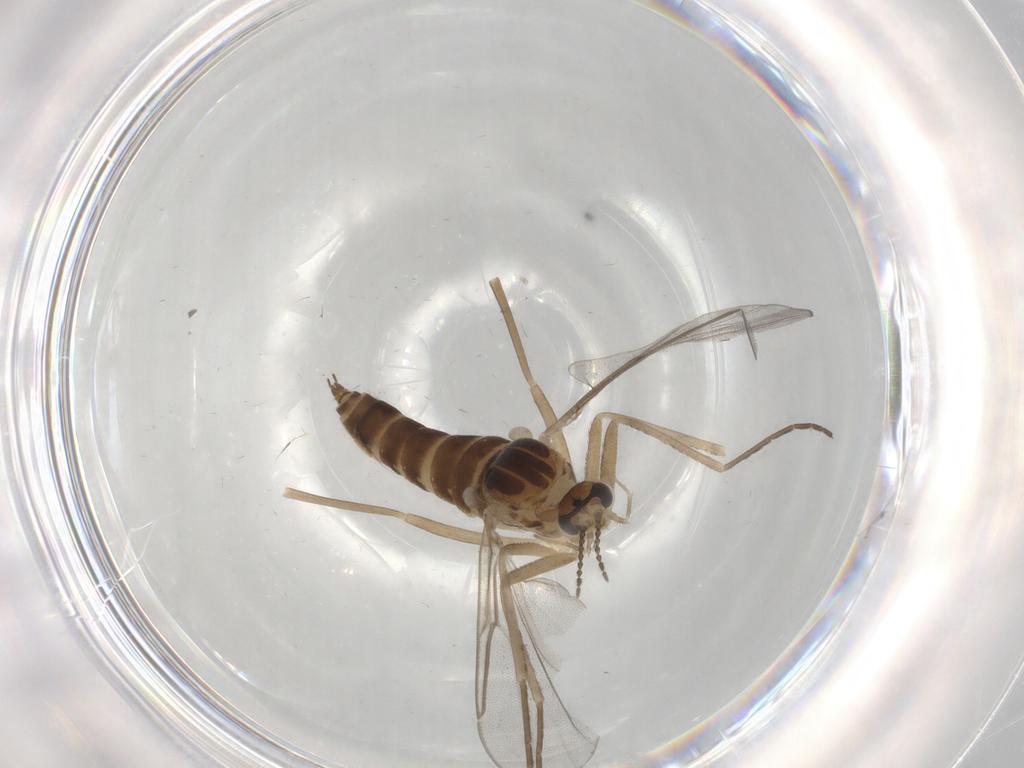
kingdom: Animalia
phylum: Arthropoda
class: Insecta
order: Diptera
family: Cecidomyiidae
